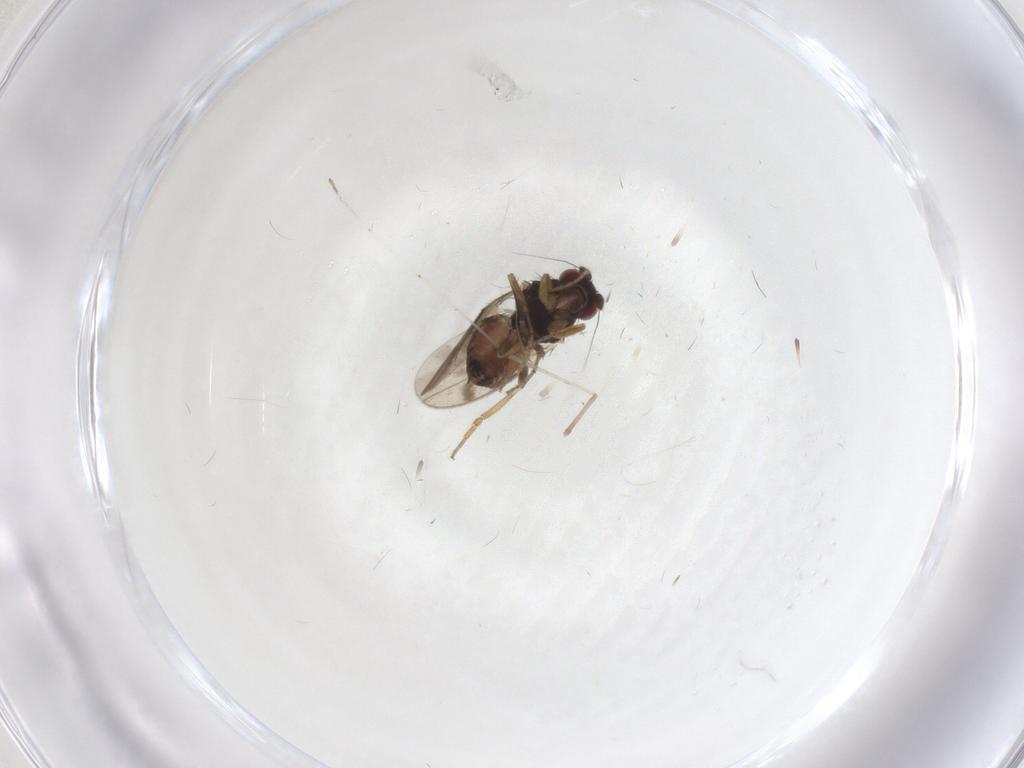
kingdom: Animalia
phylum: Arthropoda
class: Insecta
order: Diptera
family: Sphaeroceridae
